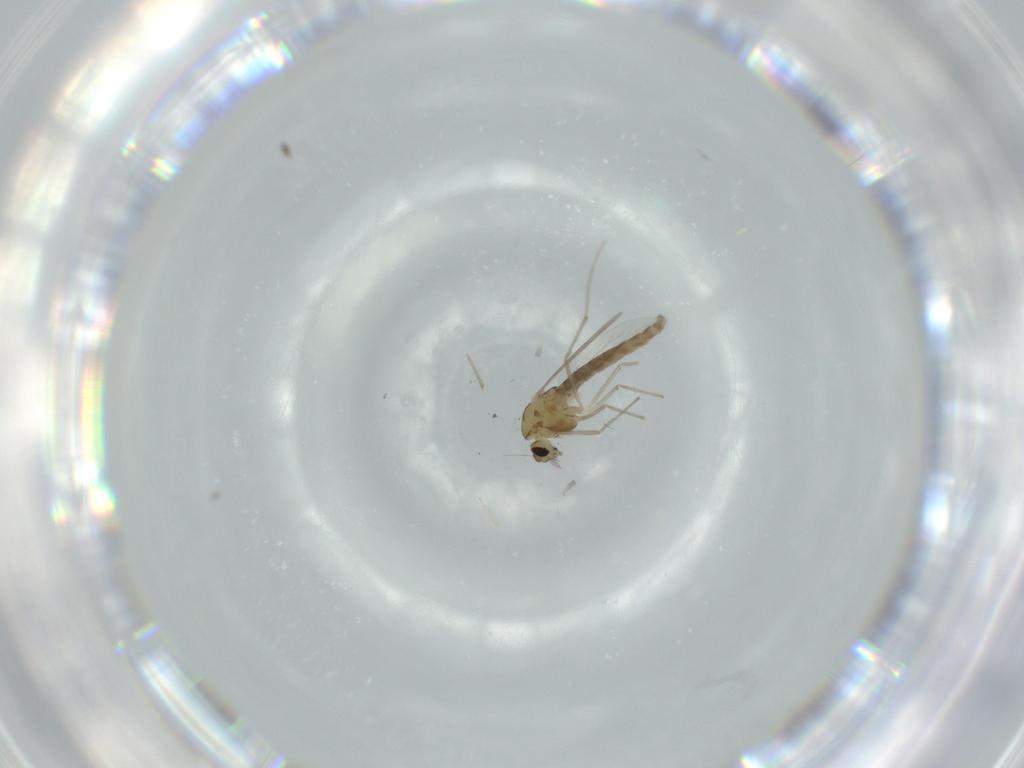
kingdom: Animalia
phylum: Arthropoda
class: Insecta
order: Diptera
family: Chironomidae
